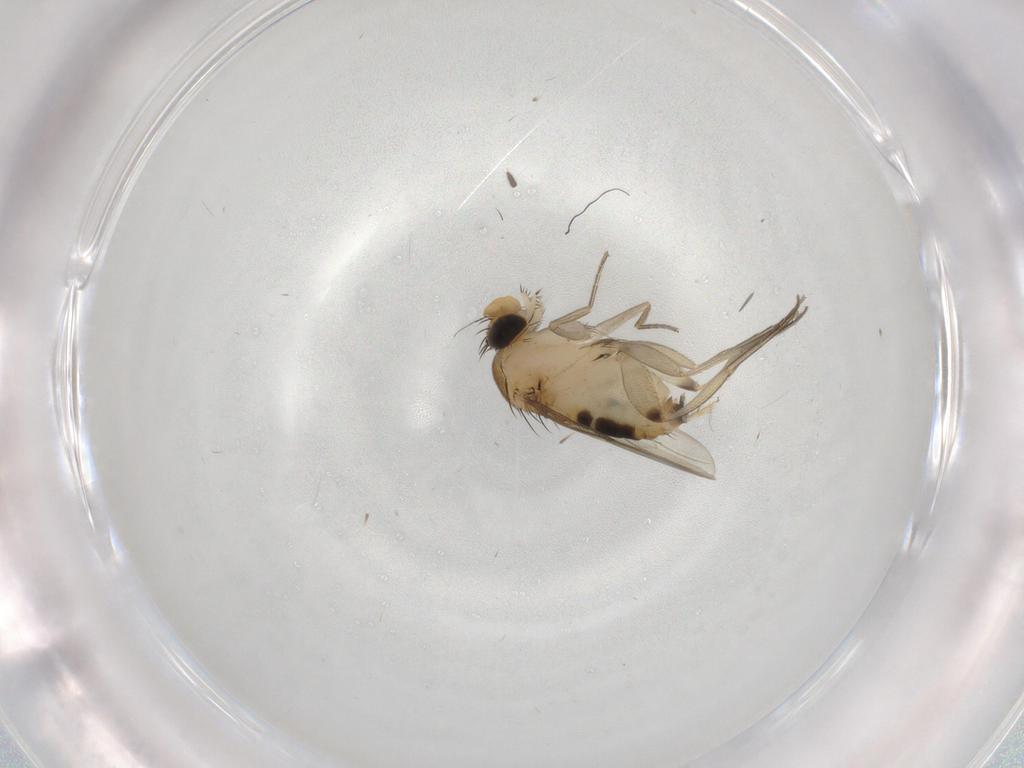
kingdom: Animalia
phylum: Arthropoda
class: Insecta
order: Diptera
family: Phoridae
